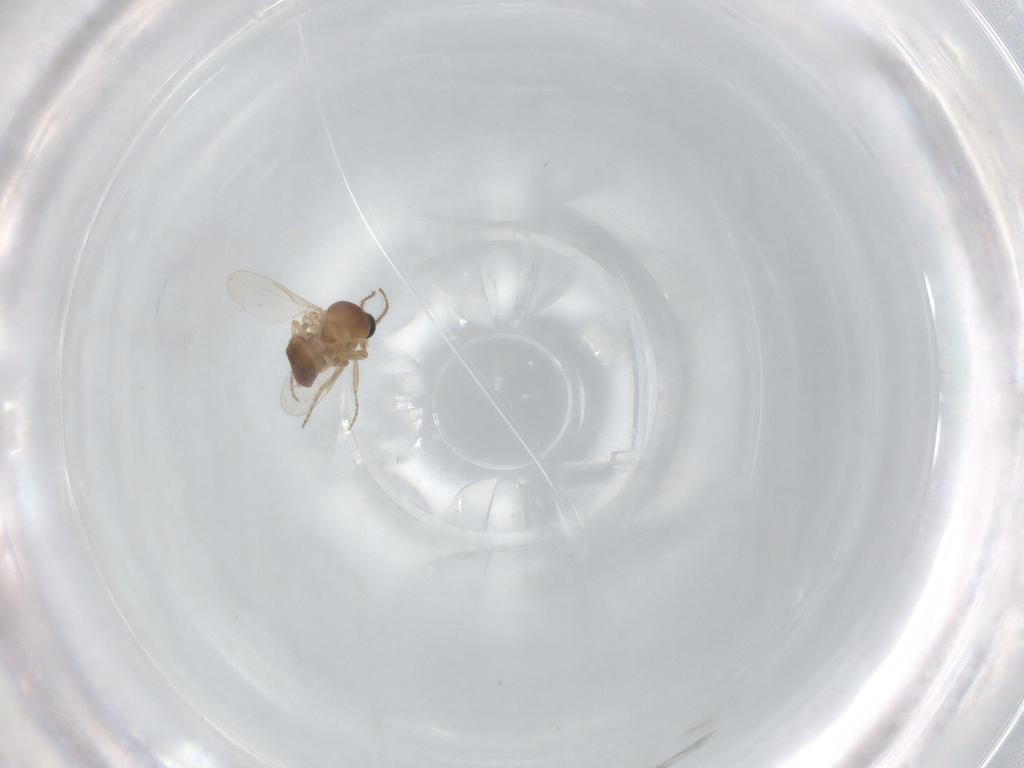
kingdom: Animalia
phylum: Arthropoda
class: Insecta
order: Diptera
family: Ceratopogonidae
